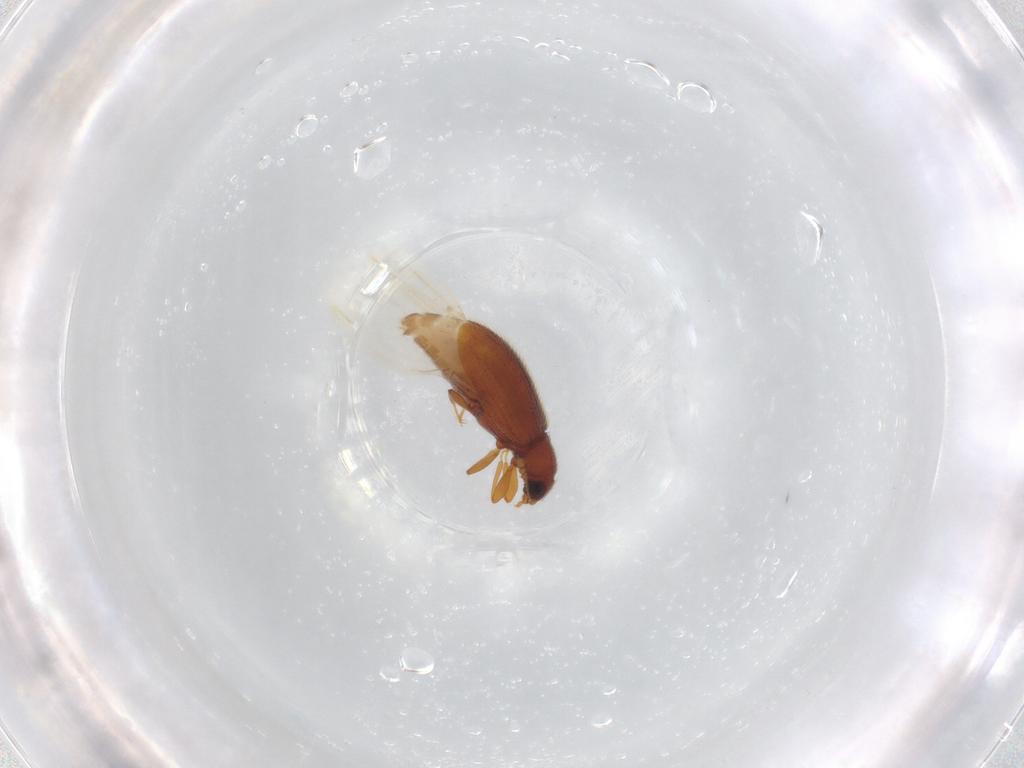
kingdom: Animalia
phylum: Arthropoda
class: Insecta
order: Coleoptera
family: Latridiidae
